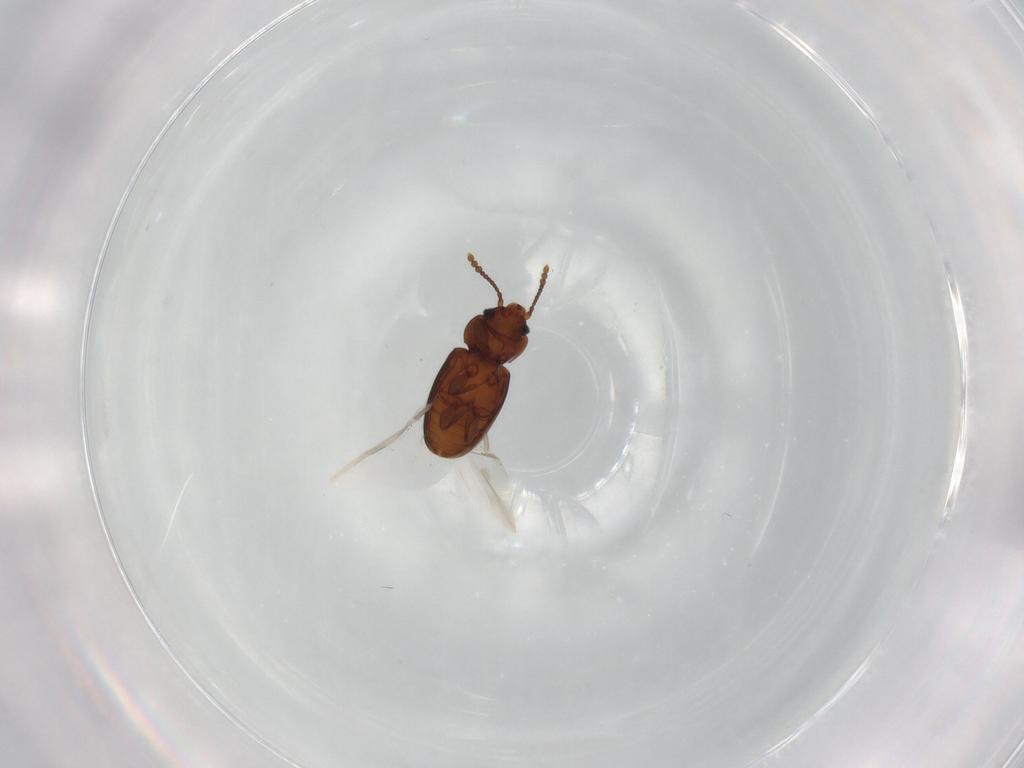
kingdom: Animalia
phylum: Arthropoda
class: Insecta
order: Coleoptera
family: Laemophloeidae
